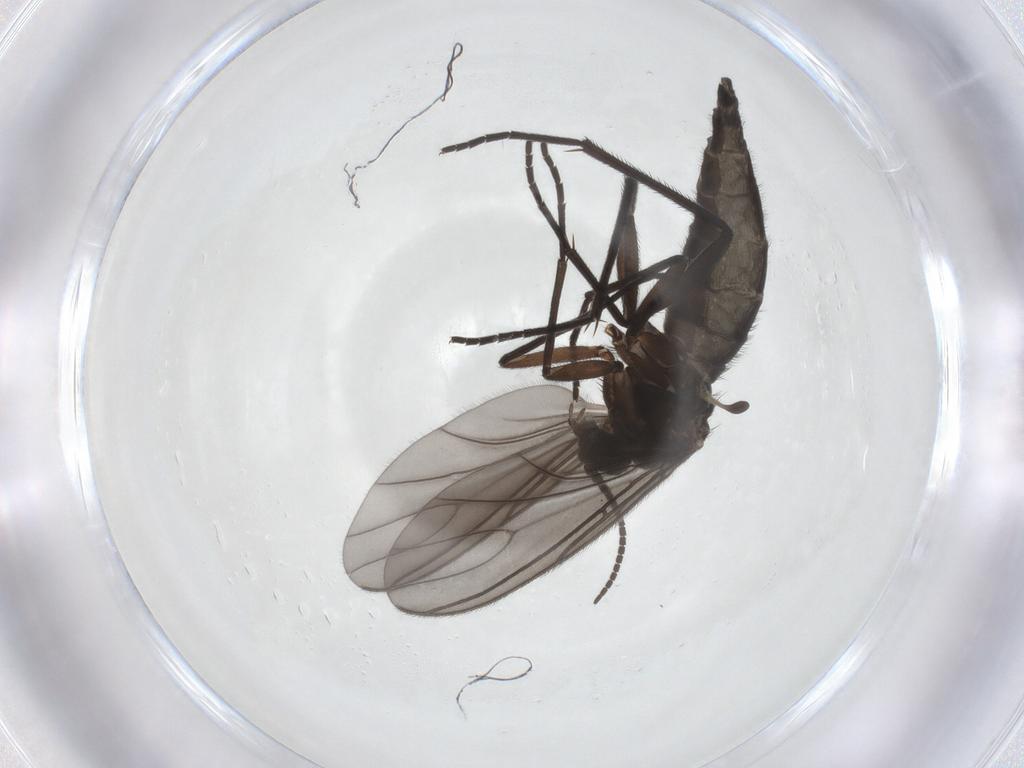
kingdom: Animalia
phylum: Arthropoda
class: Insecta
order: Diptera
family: Sciaridae
